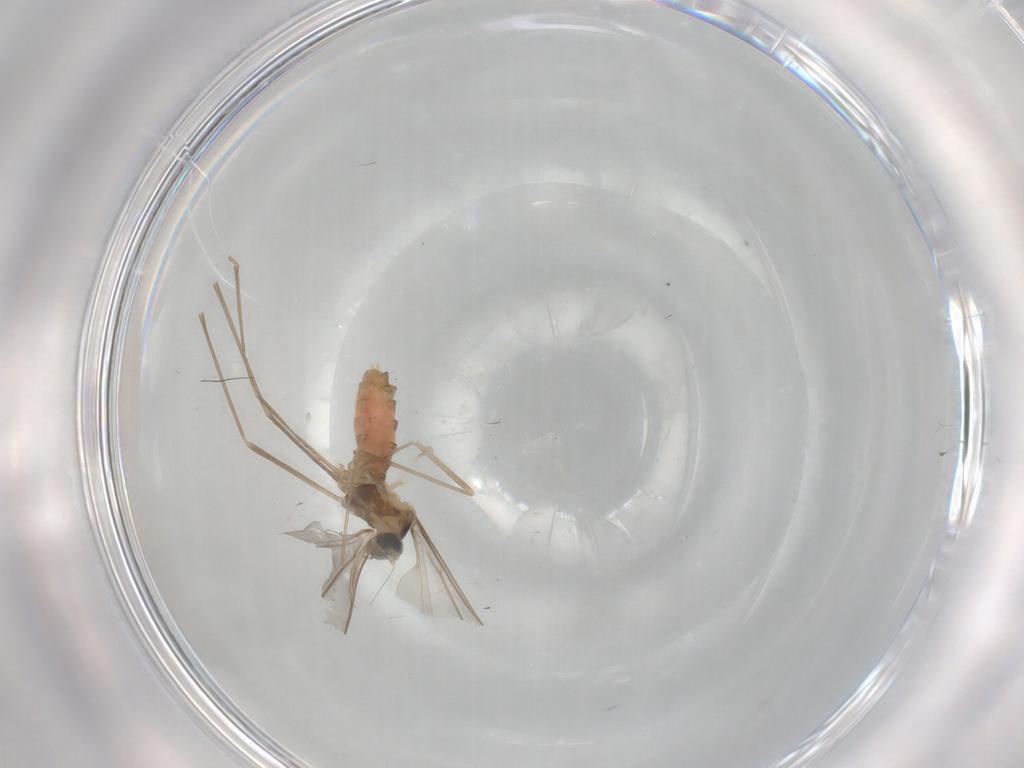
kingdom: Animalia
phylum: Arthropoda
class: Insecta
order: Diptera
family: Cecidomyiidae
